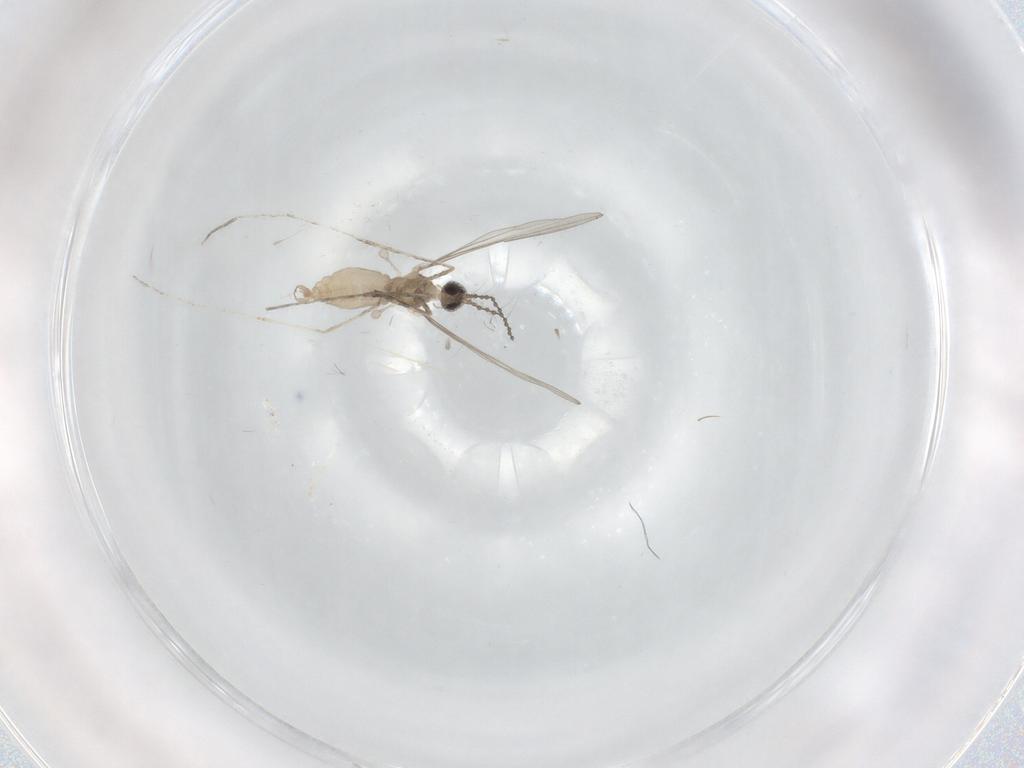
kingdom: Animalia
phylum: Arthropoda
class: Insecta
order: Diptera
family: Cecidomyiidae
